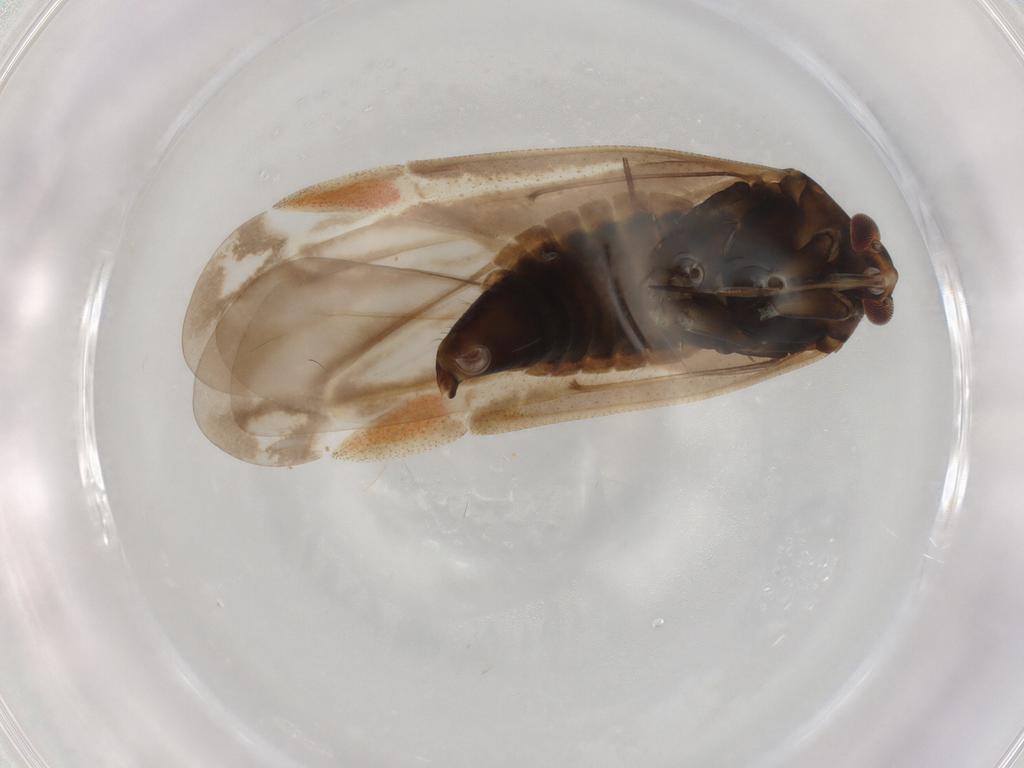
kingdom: Animalia
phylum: Arthropoda
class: Insecta
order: Hemiptera
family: Miridae
